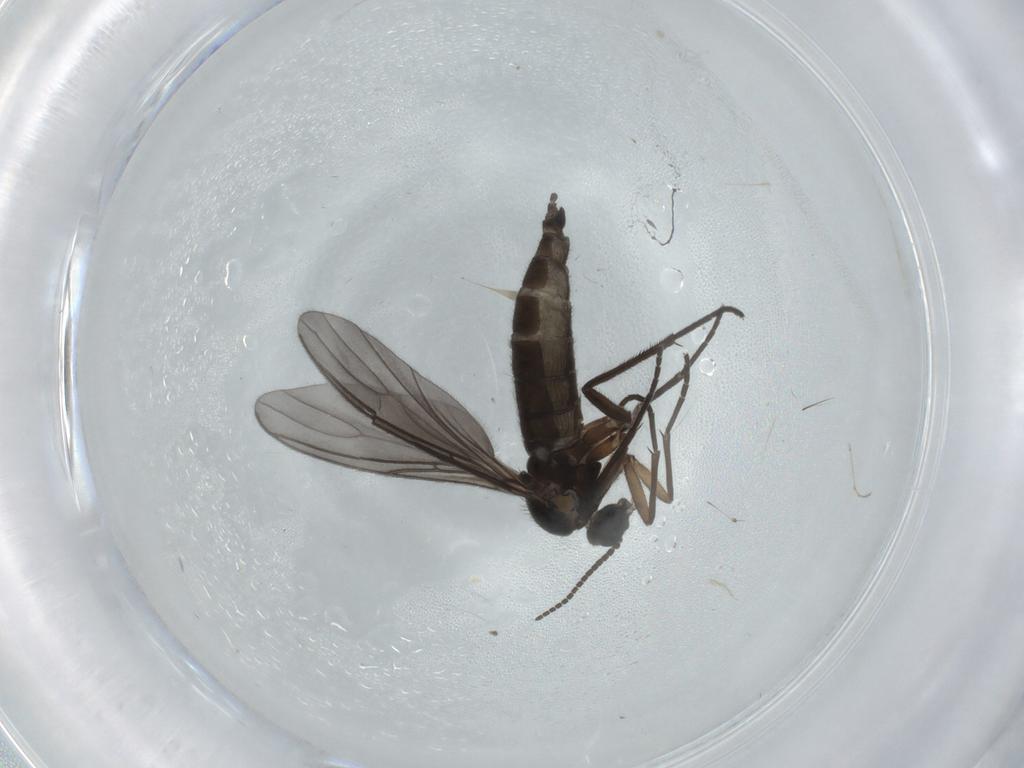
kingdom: Animalia
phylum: Arthropoda
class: Insecta
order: Diptera
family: Sciaridae
